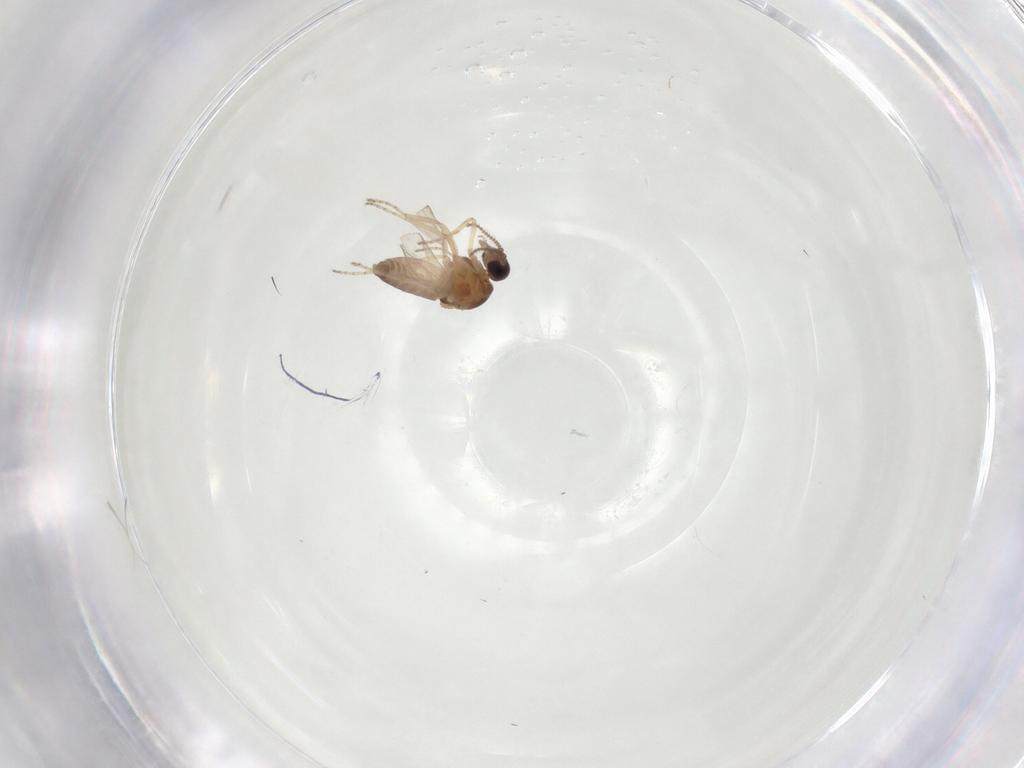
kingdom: Animalia
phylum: Arthropoda
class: Insecta
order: Diptera
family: Ceratopogonidae
